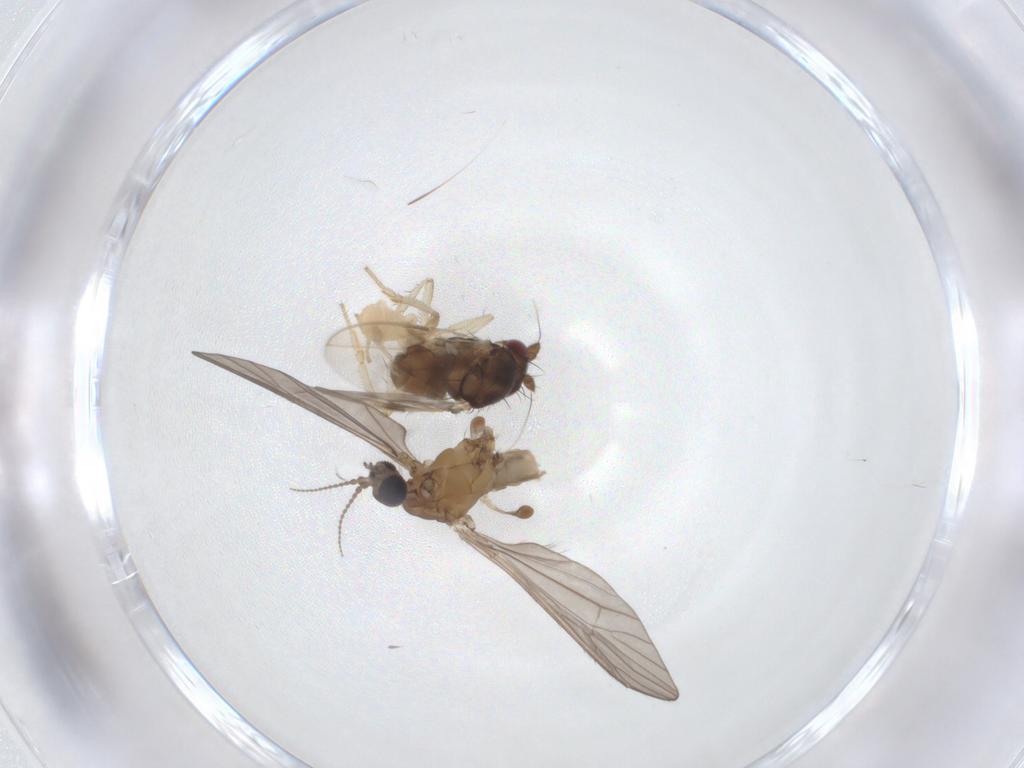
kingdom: Animalia
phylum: Arthropoda
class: Insecta
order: Diptera
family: Sphaeroceridae
